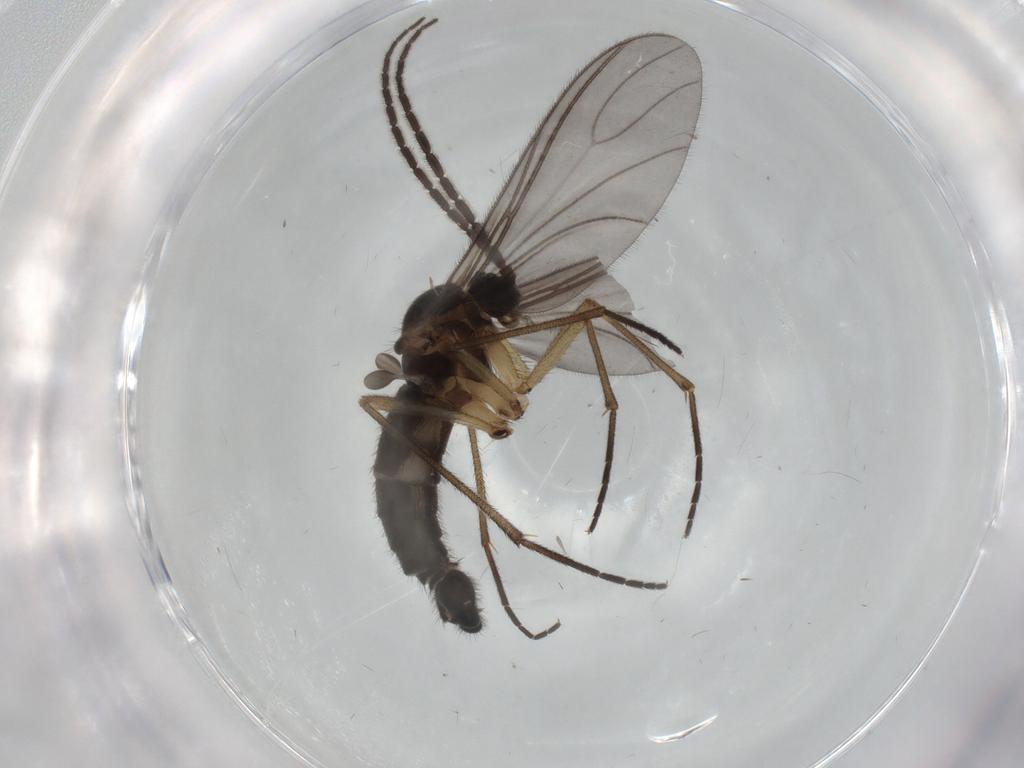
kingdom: Animalia
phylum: Arthropoda
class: Insecta
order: Diptera
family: Sciaridae
